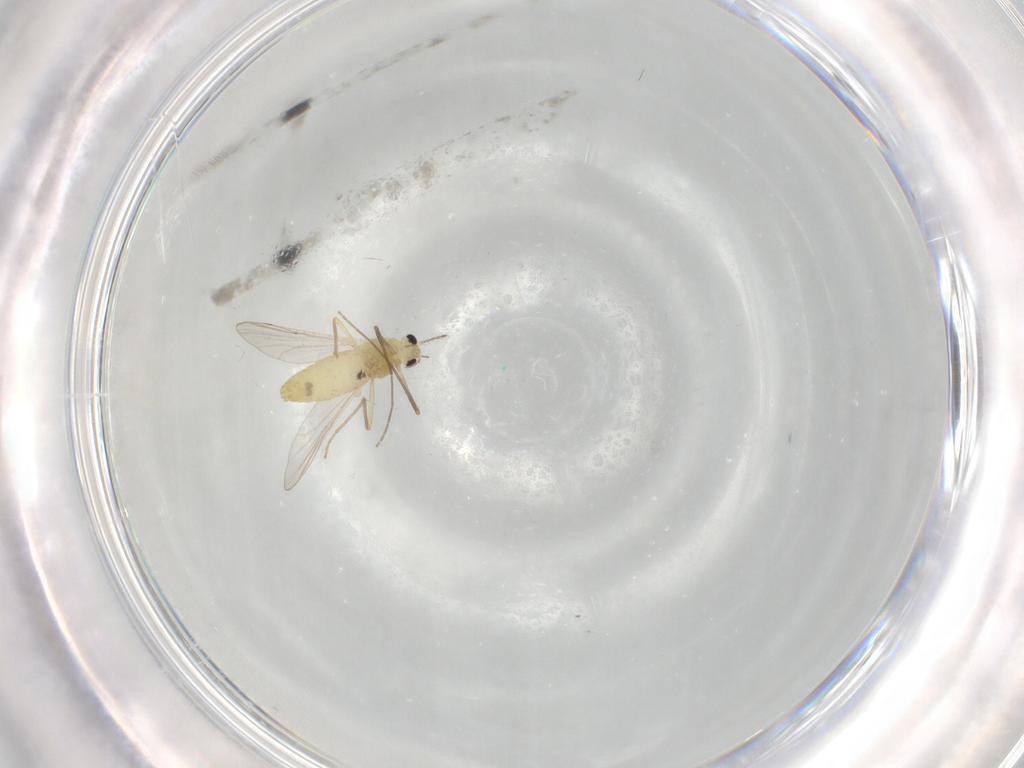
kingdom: Animalia
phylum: Arthropoda
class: Insecta
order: Diptera
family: Chironomidae
